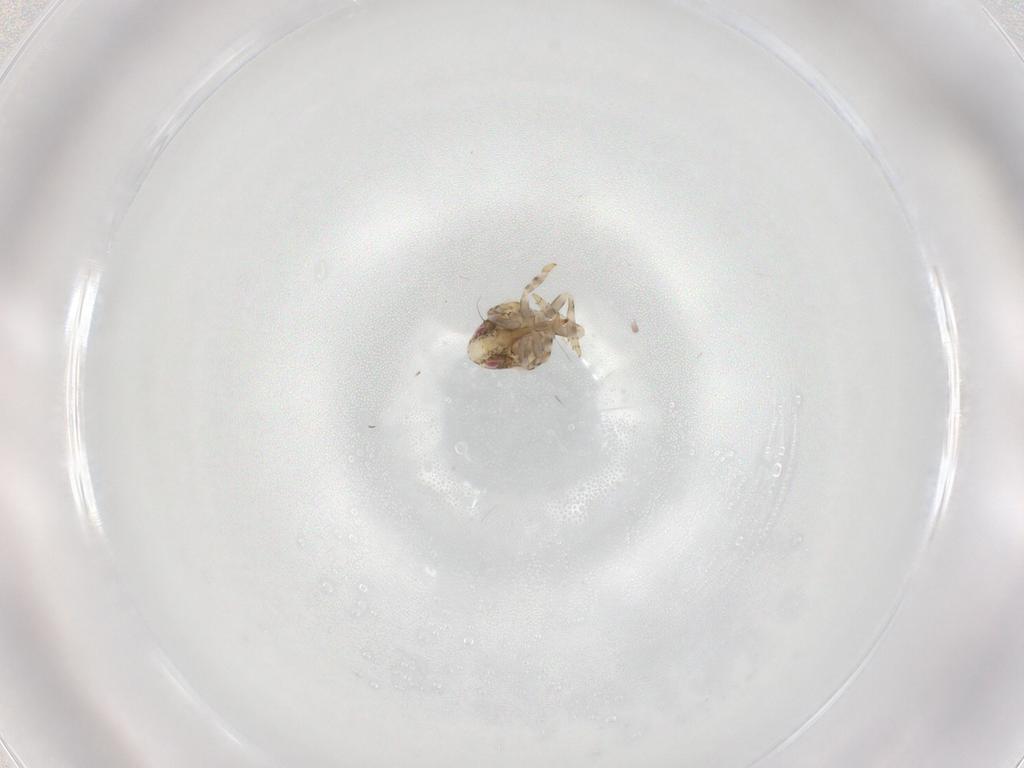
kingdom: Animalia
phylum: Arthropoda
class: Insecta
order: Hemiptera
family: Acanaloniidae
